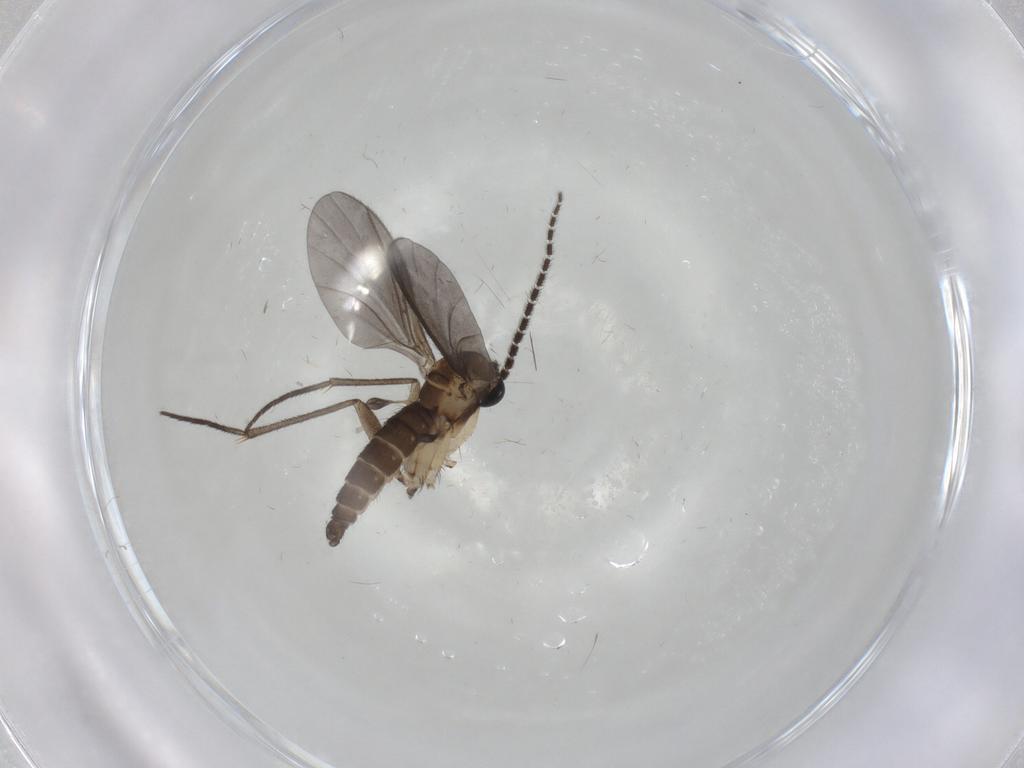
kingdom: Animalia
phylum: Arthropoda
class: Insecta
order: Diptera
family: Sciaridae
